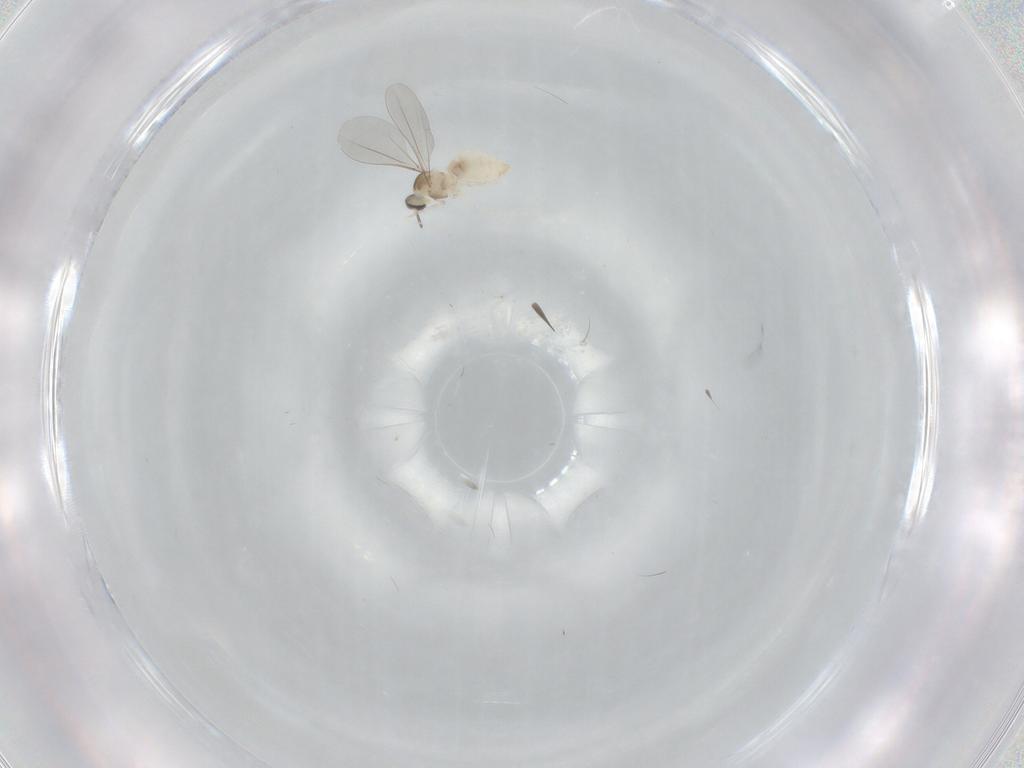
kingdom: Animalia
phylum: Arthropoda
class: Insecta
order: Diptera
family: Cecidomyiidae
